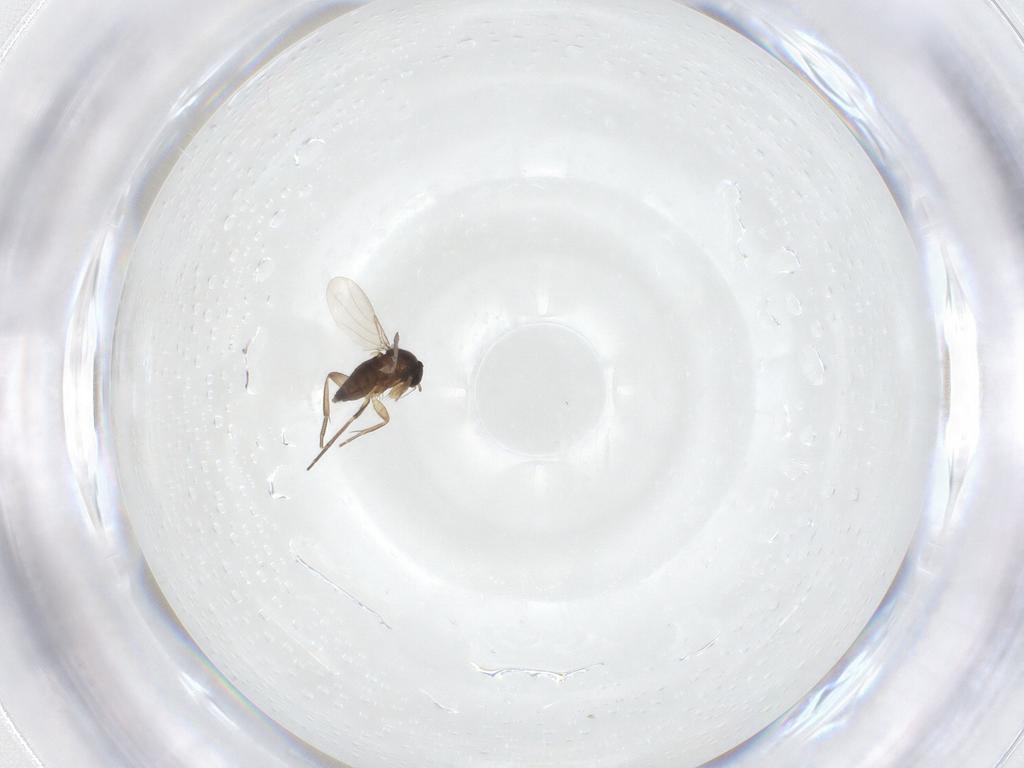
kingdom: Animalia
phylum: Arthropoda
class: Insecta
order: Diptera
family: Phoridae
